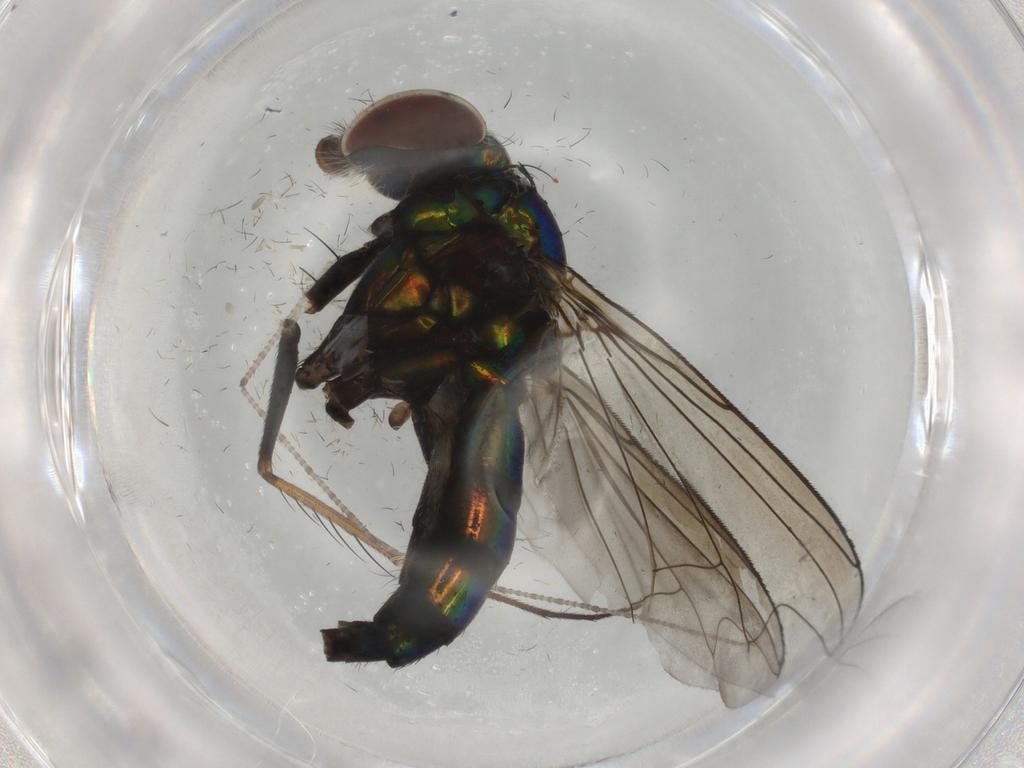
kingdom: Animalia
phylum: Arthropoda
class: Insecta
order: Diptera
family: Dolichopodidae
